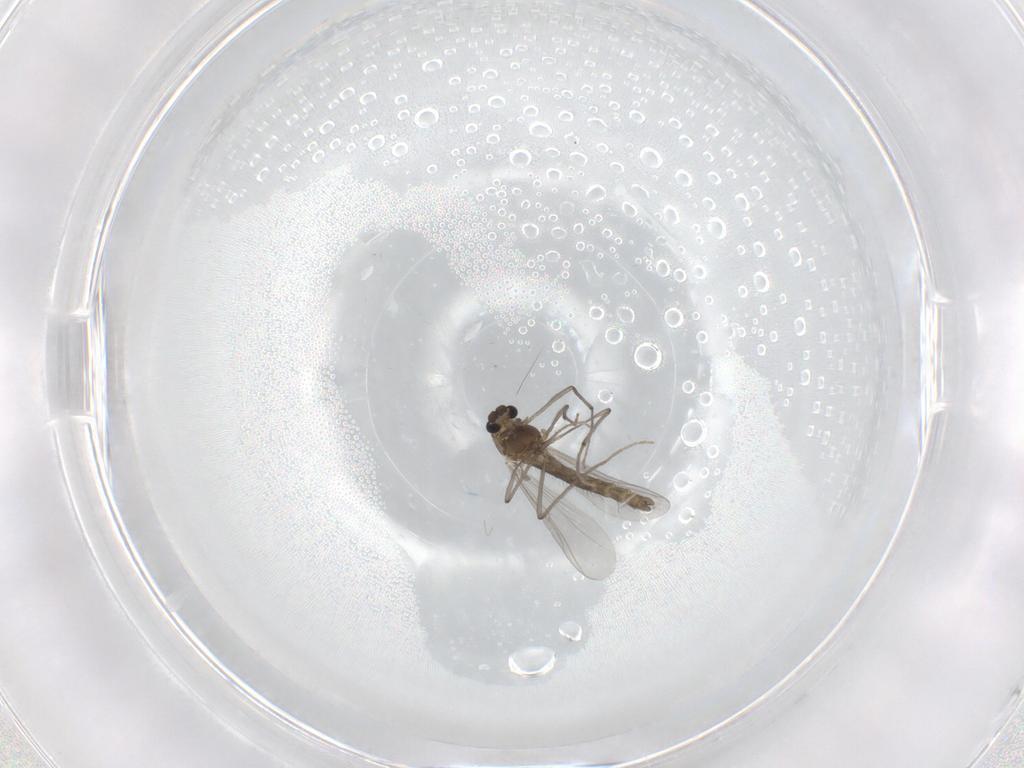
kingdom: Animalia
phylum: Arthropoda
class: Insecta
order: Diptera
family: Chironomidae
